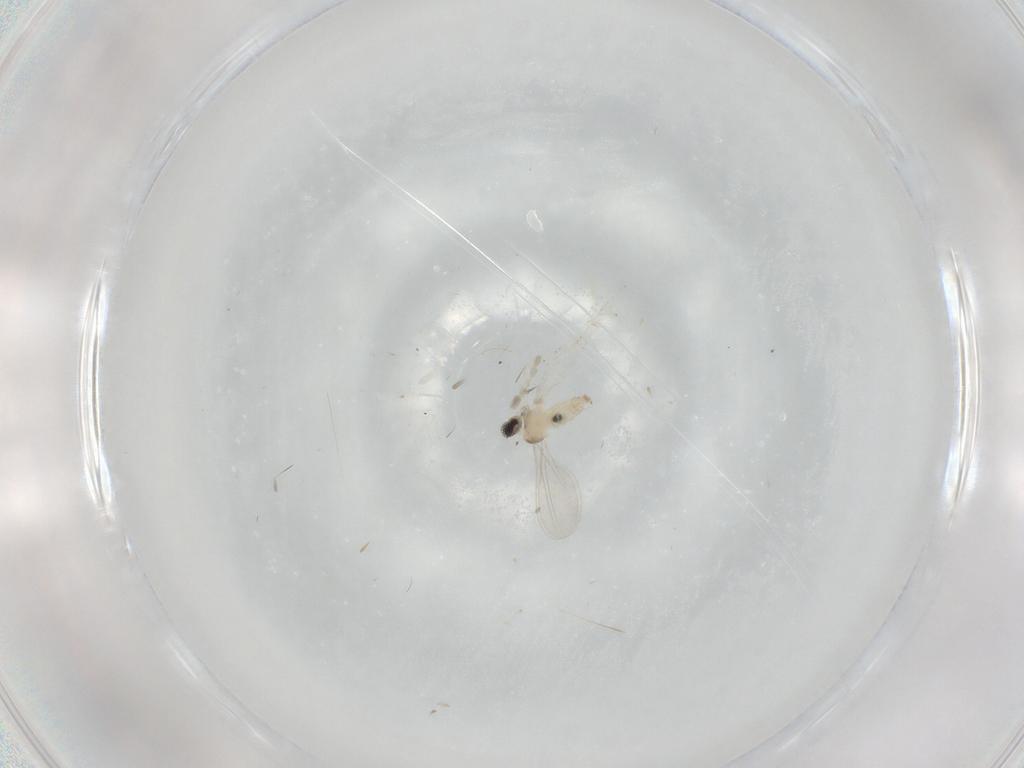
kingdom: Animalia
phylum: Arthropoda
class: Insecta
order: Diptera
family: Cecidomyiidae
